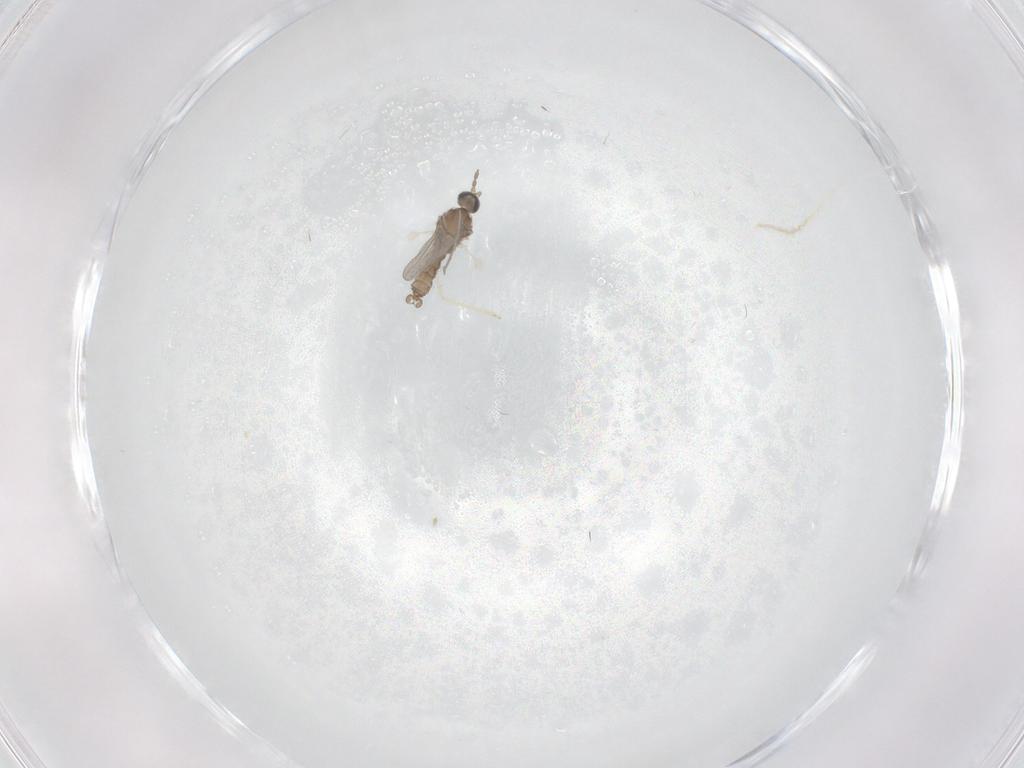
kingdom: Animalia
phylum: Arthropoda
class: Insecta
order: Diptera
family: Cecidomyiidae
